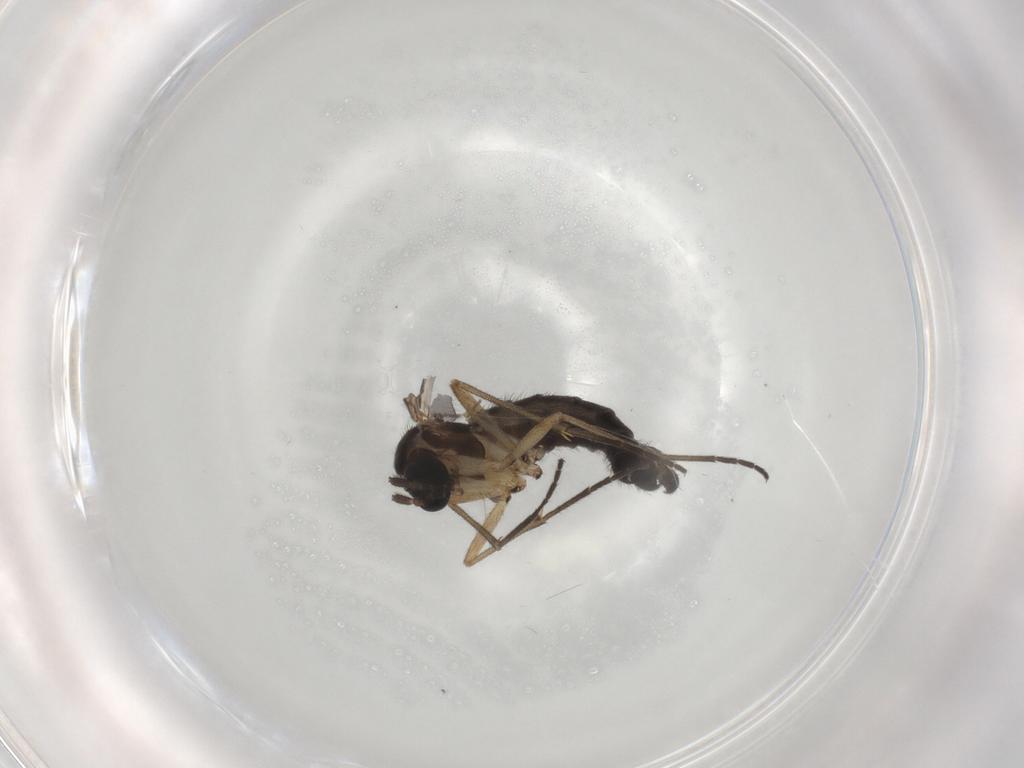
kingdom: Animalia
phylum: Arthropoda
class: Insecta
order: Diptera
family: Sciaridae
